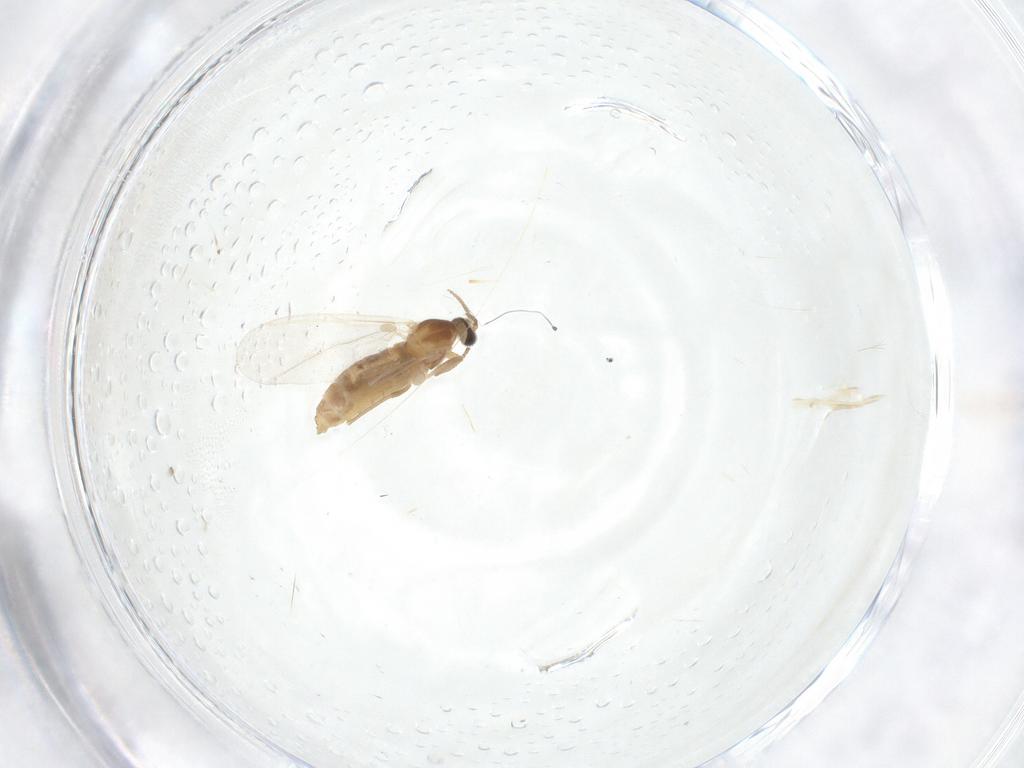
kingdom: Animalia
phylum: Arthropoda
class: Insecta
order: Diptera
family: Cecidomyiidae
